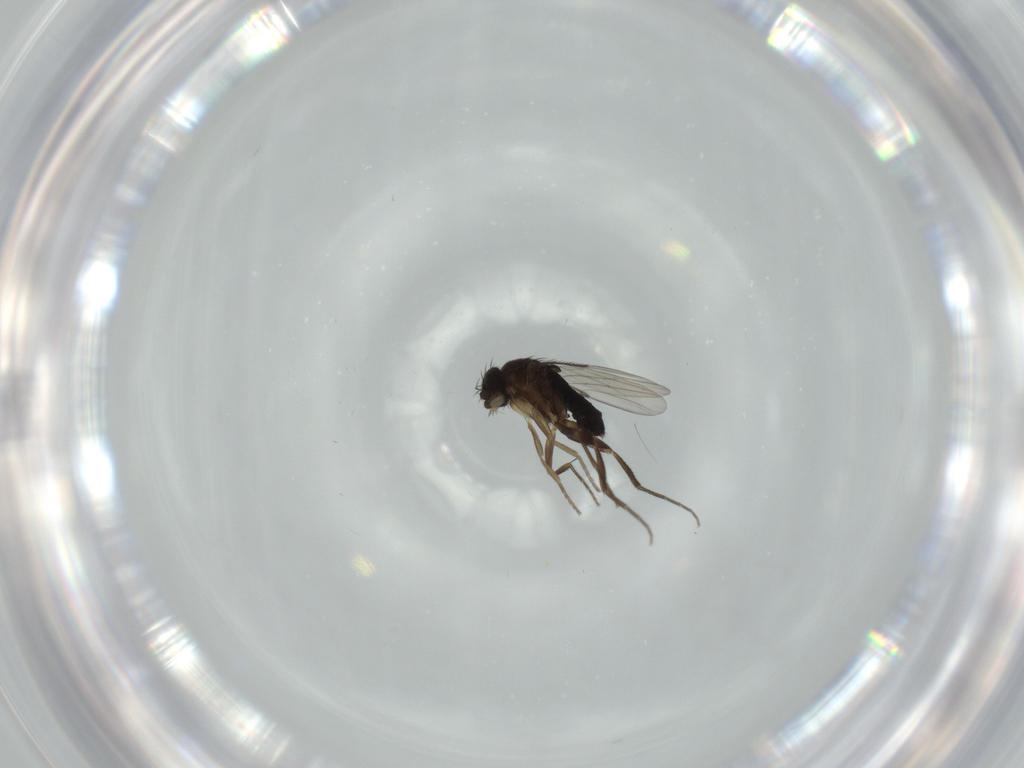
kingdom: Animalia
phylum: Arthropoda
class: Insecta
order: Diptera
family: Phoridae
